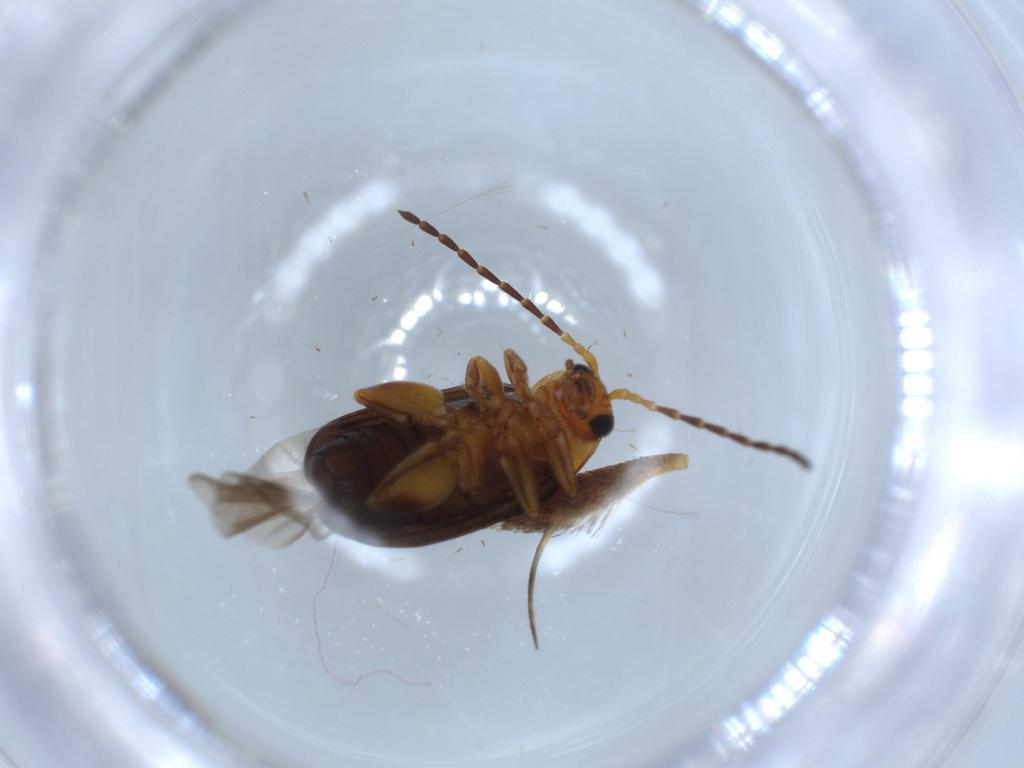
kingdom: Animalia
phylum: Arthropoda
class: Insecta
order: Coleoptera
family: Chrysomelidae
